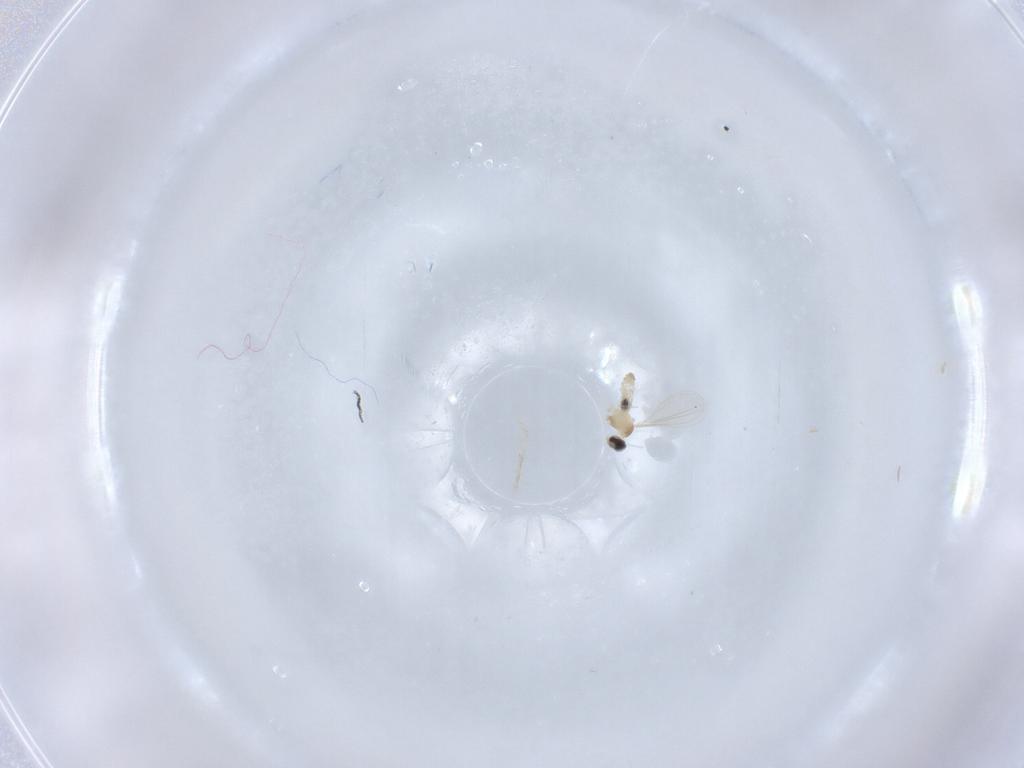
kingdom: Animalia
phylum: Arthropoda
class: Insecta
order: Diptera
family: Cecidomyiidae
